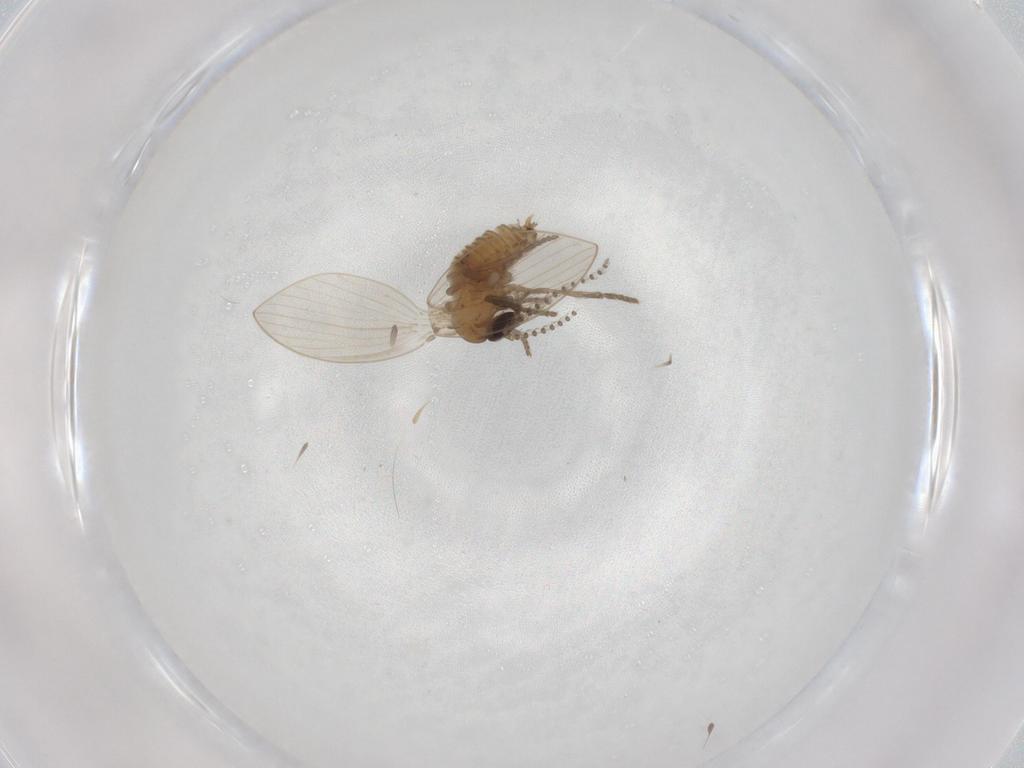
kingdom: Animalia
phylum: Arthropoda
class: Insecta
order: Diptera
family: Psychodidae
